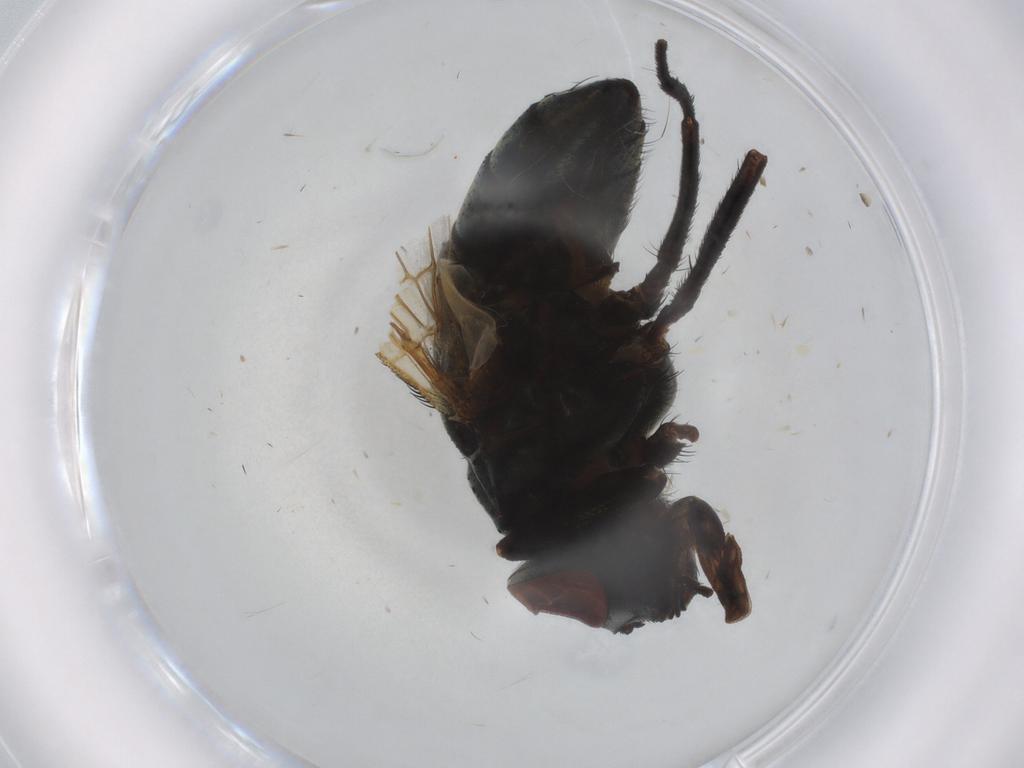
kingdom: Animalia
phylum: Arthropoda
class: Insecta
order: Diptera
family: Muscidae
